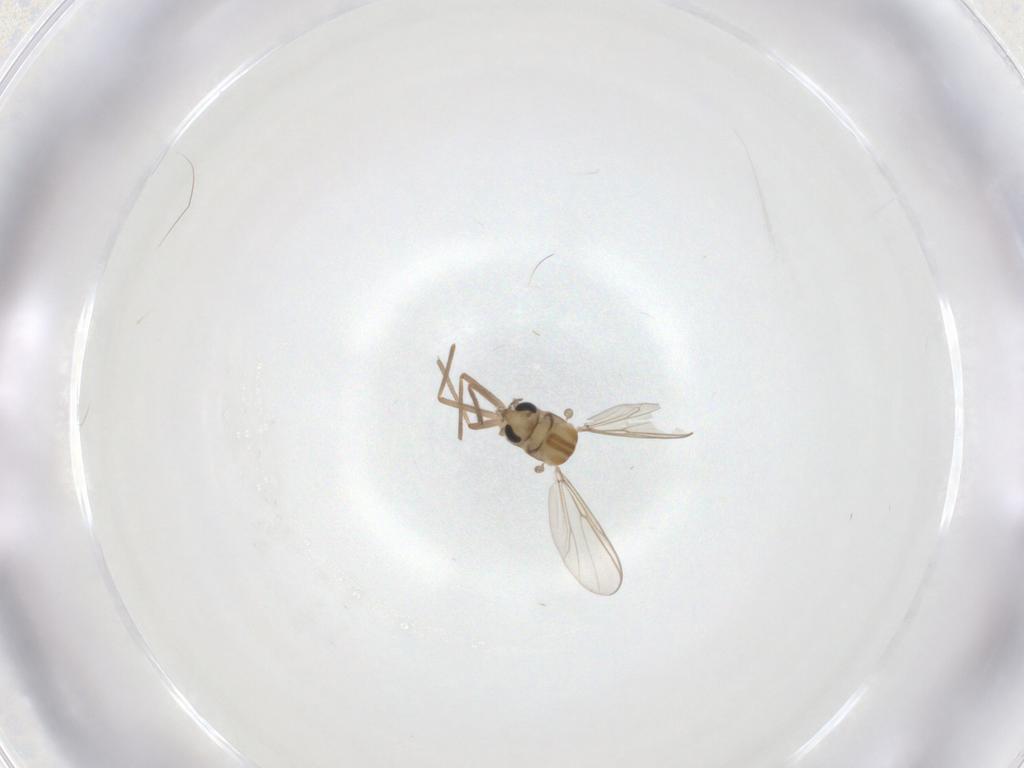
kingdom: Animalia
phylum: Arthropoda
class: Insecta
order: Diptera
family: Chironomidae
